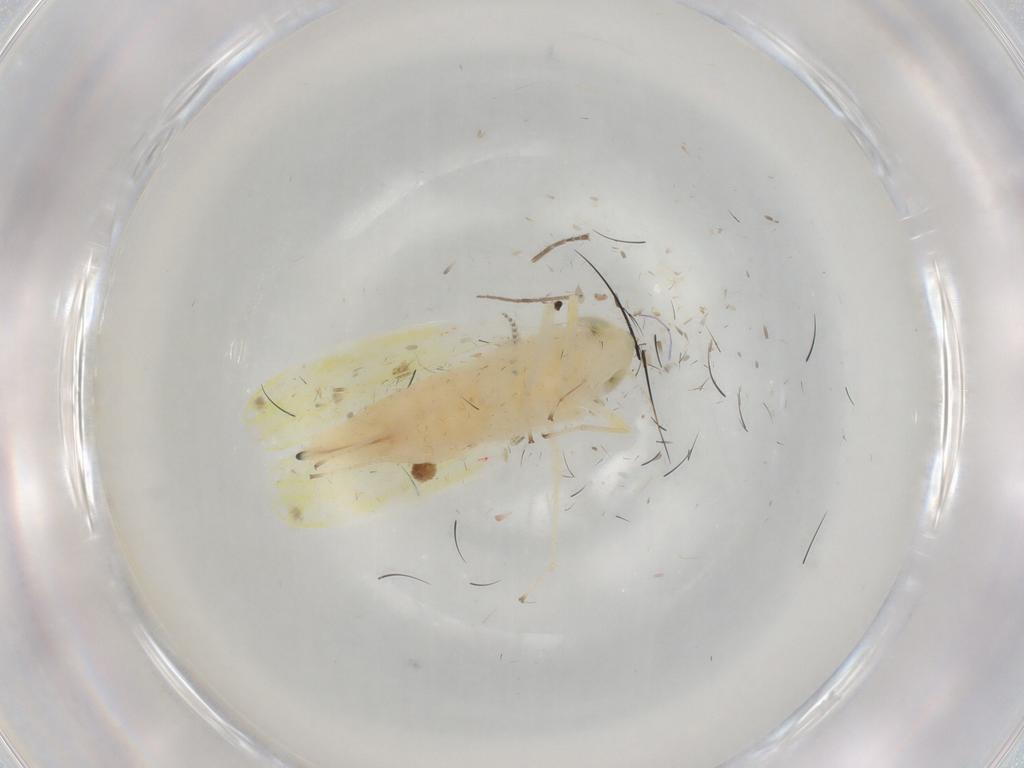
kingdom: Animalia
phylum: Arthropoda
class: Insecta
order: Hemiptera
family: Cicadellidae
